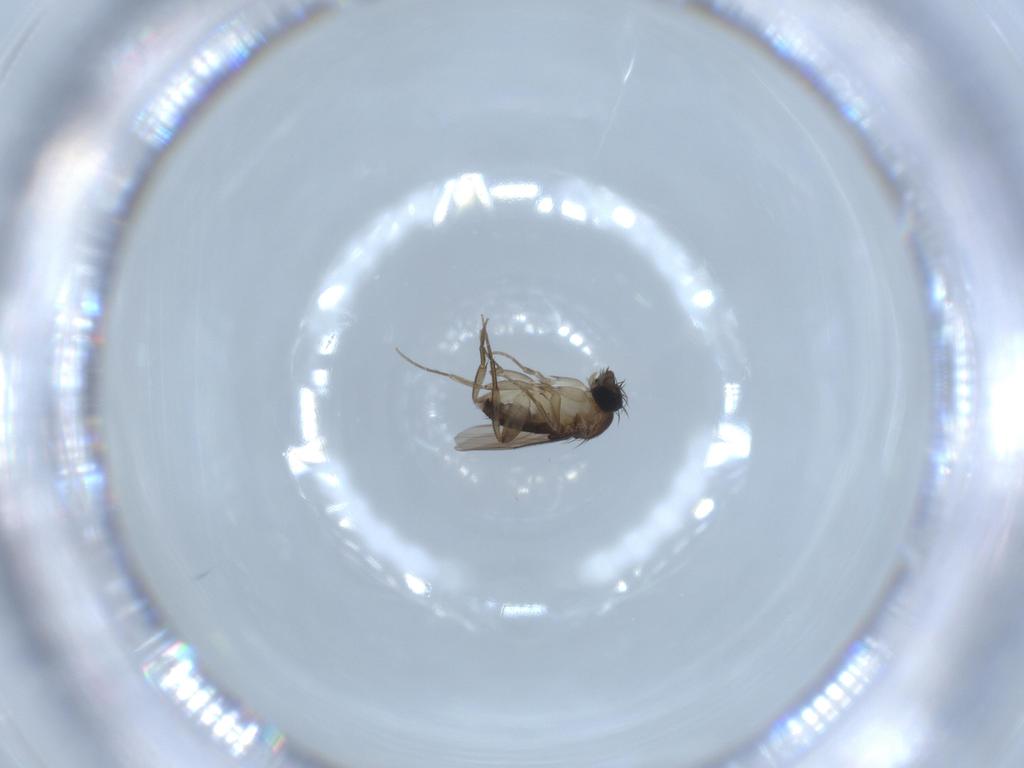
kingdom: Animalia
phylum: Arthropoda
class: Insecta
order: Diptera
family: Phoridae
